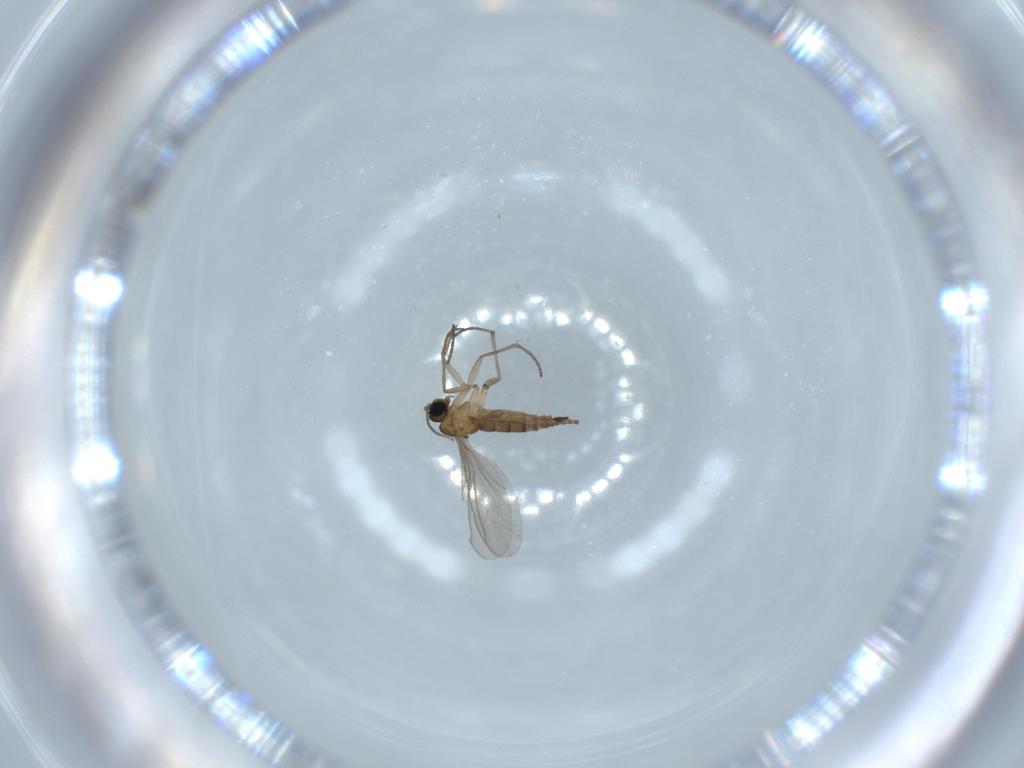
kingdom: Animalia
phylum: Arthropoda
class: Insecta
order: Diptera
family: Sciaridae
